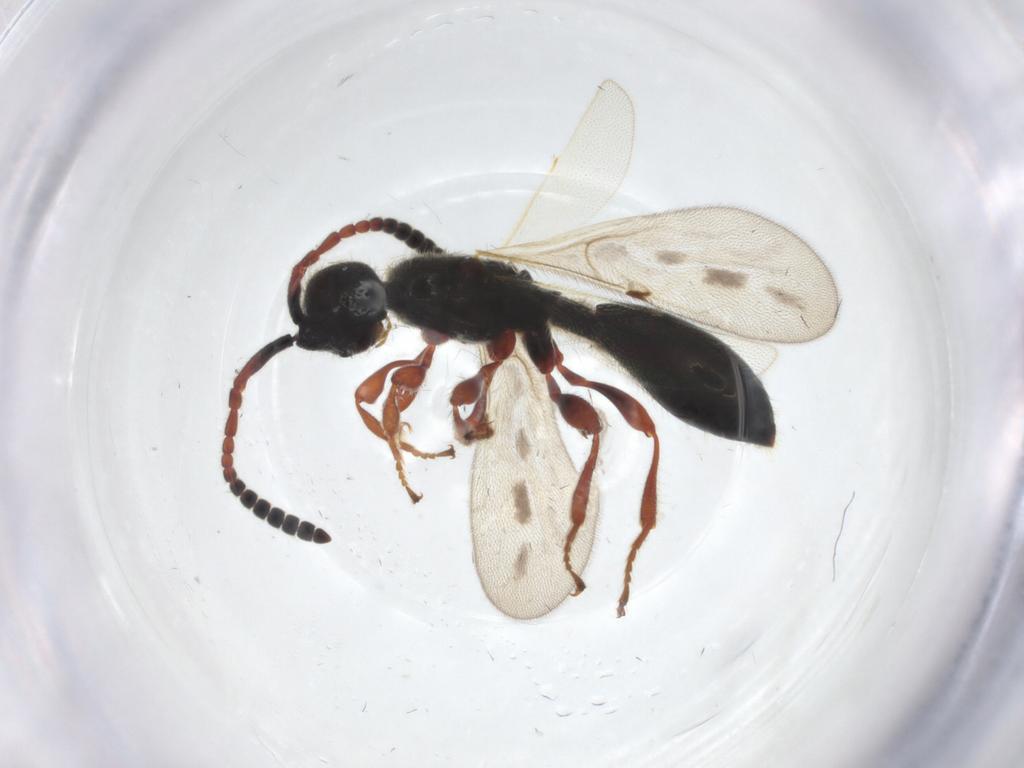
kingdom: Animalia
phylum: Arthropoda
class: Insecta
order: Hymenoptera
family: Diapriidae
